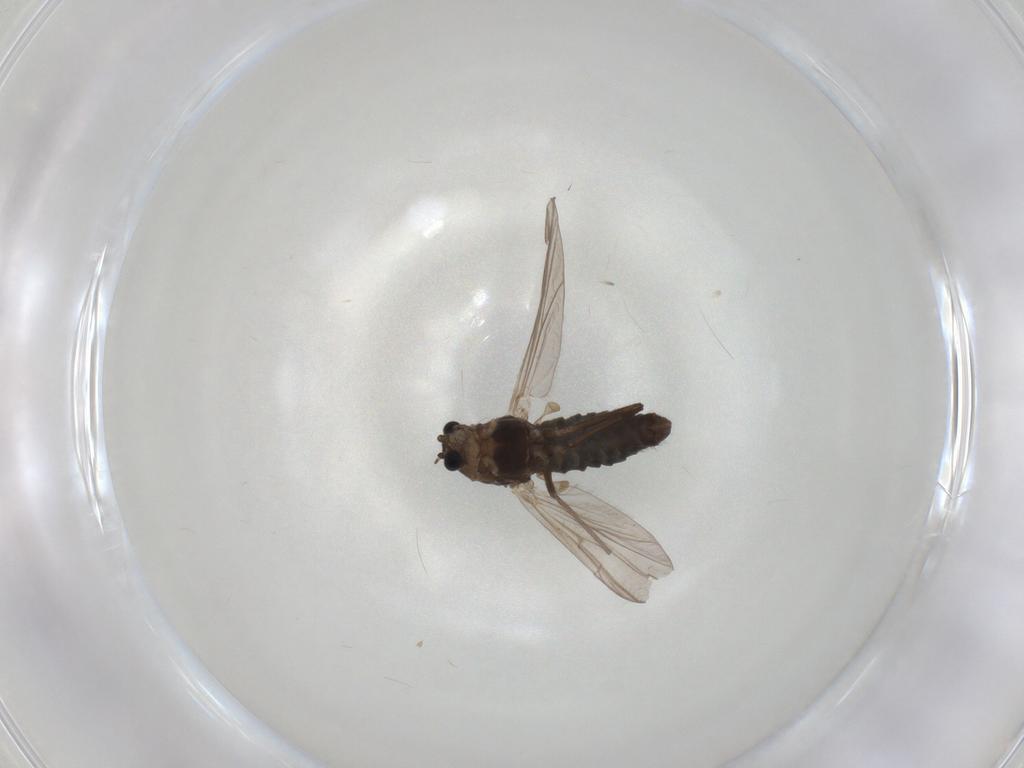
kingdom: Animalia
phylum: Arthropoda
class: Insecta
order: Diptera
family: Chironomidae
